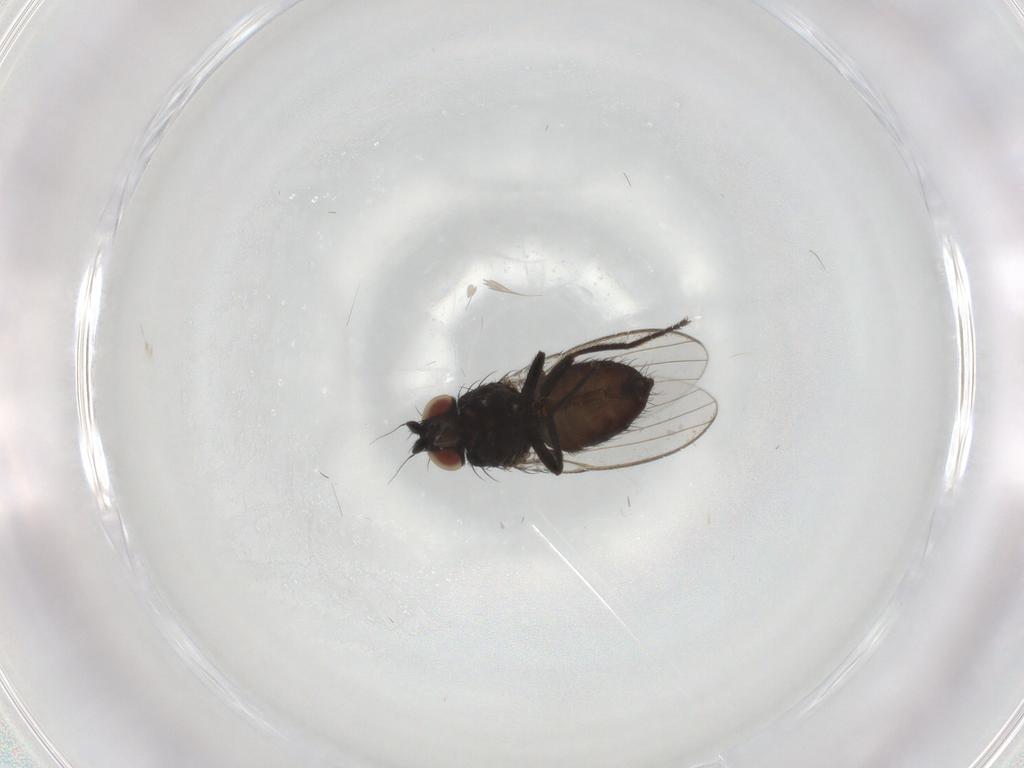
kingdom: Animalia
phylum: Arthropoda
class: Insecta
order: Diptera
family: Milichiidae
